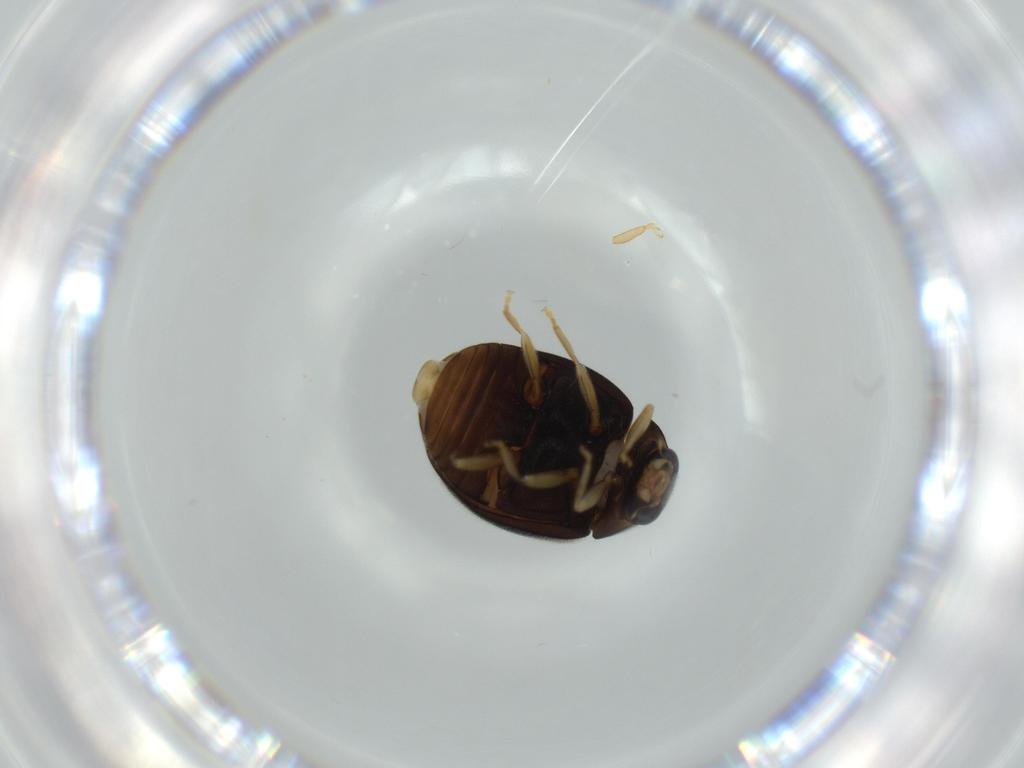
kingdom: Animalia
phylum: Arthropoda
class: Insecta
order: Coleoptera
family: Coccinellidae
